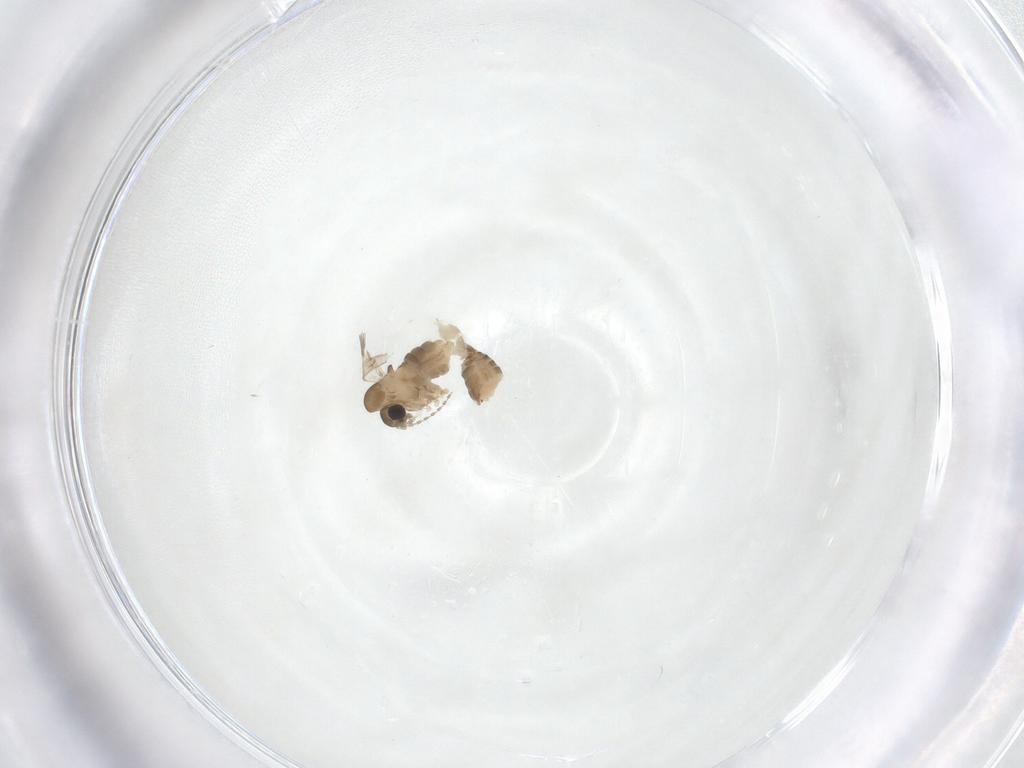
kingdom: Animalia
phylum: Arthropoda
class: Insecta
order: Diptera
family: Psychodidae
